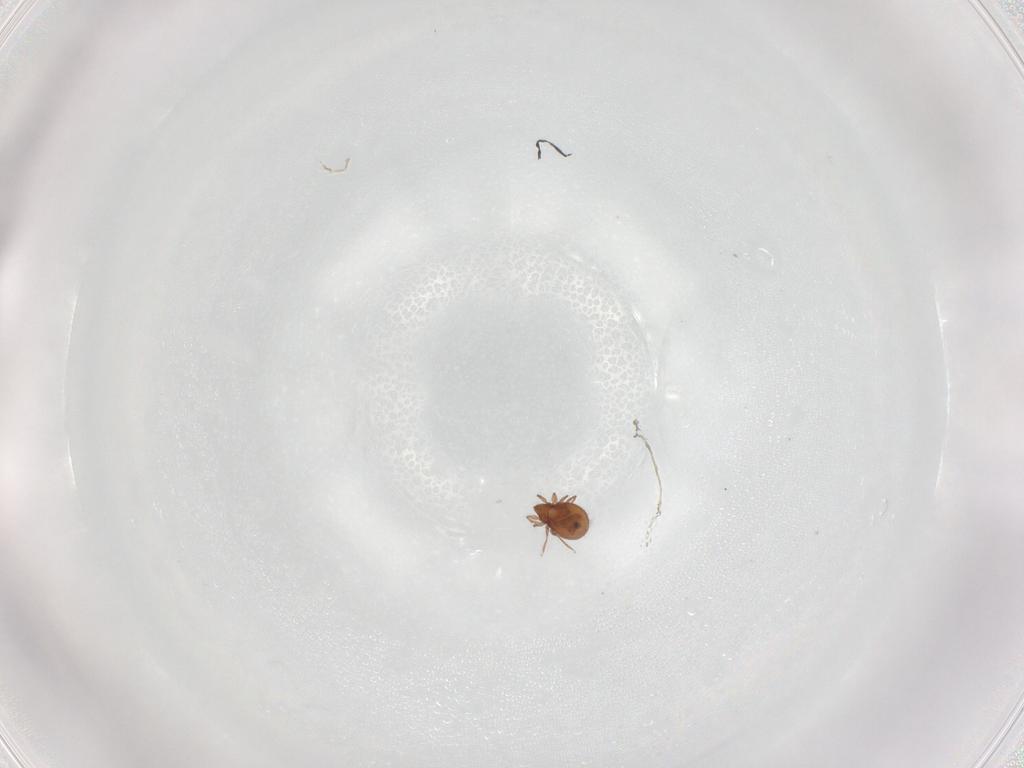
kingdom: Animalia
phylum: Arthropoda
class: Arachnida
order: Sarcoptiformes
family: Oribatulidae
